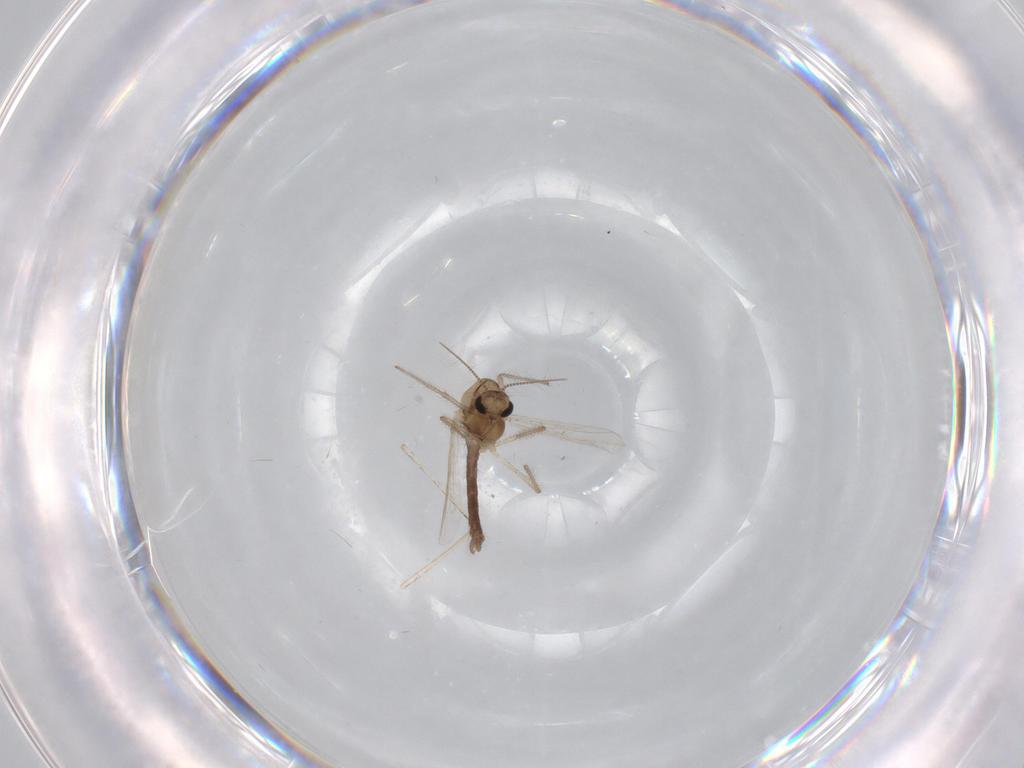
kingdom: Animalia
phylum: Arthropoda
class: Insecta
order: Diptera
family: Chironomidae
